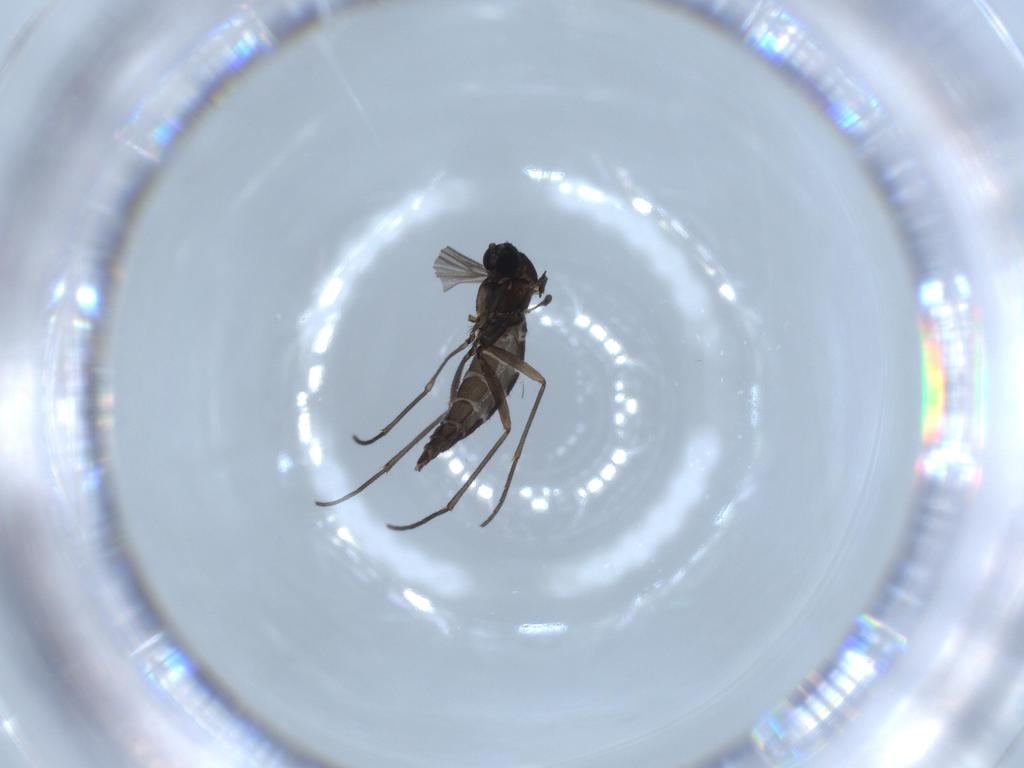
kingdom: Animalia
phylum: Arthropoda
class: Insecta
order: Diptera
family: Sciaridae
